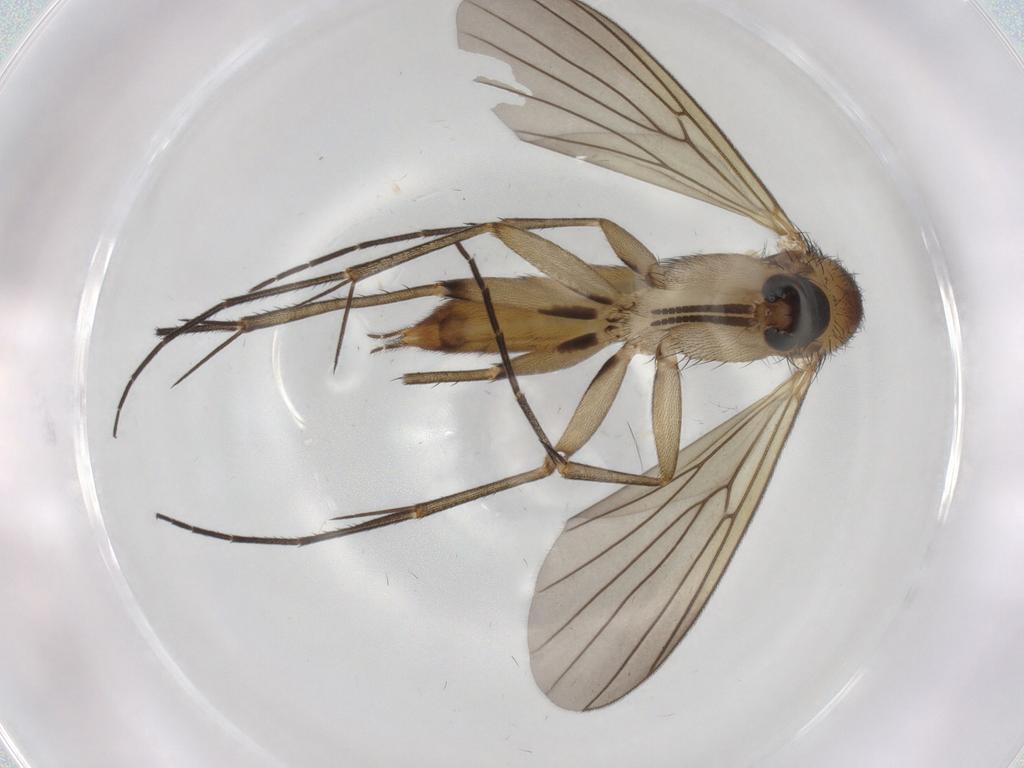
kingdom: Animalia
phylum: Arthropoda
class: Insecta
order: Diptera
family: Mycetophilidae
